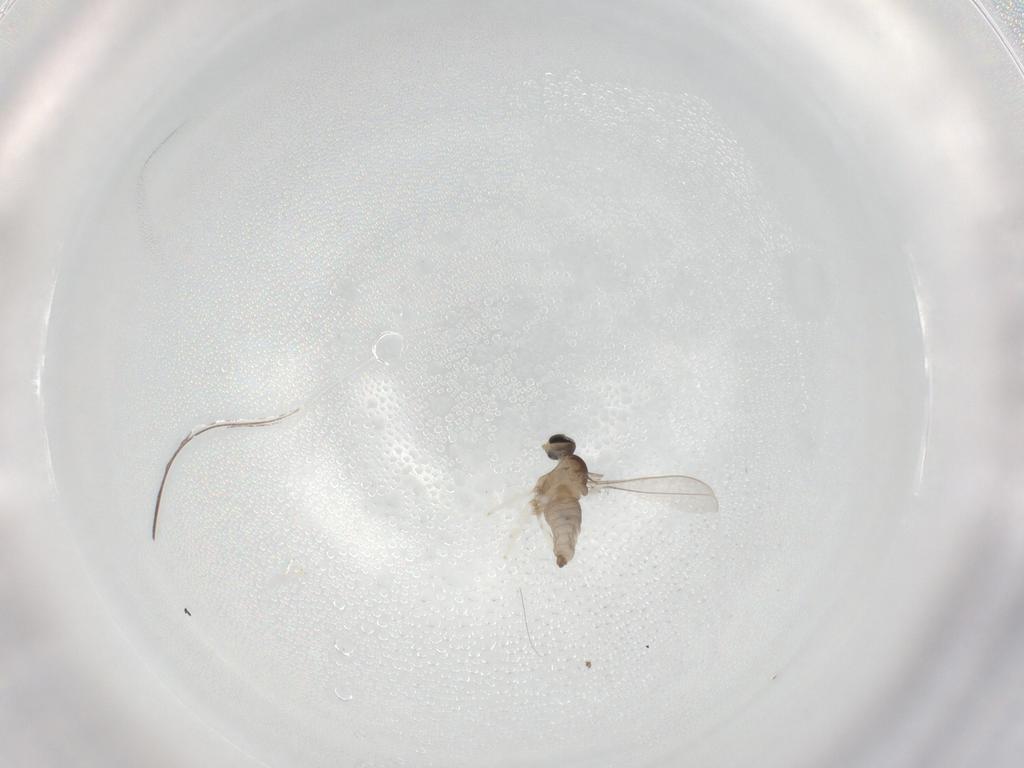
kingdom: Animalia
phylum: Arthropoda
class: Insecta
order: Diptera
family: Cecidomyiidae
